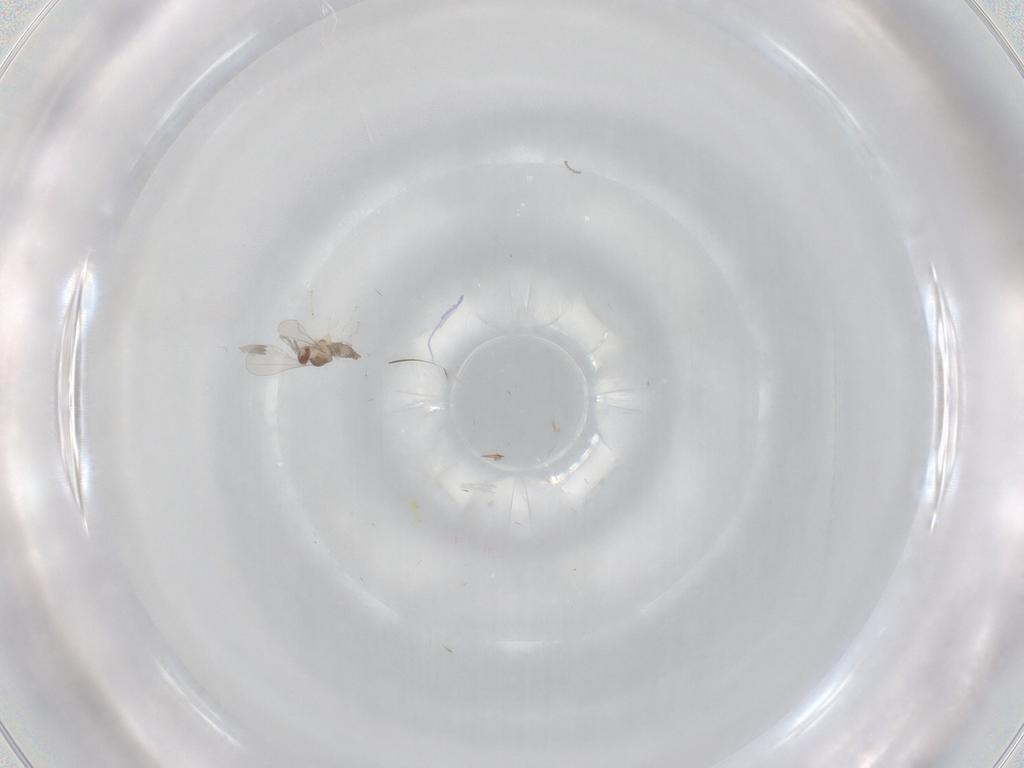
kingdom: Animalia
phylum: Arthropoda
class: Insecta
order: Diptera
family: Cecidomyiidae
